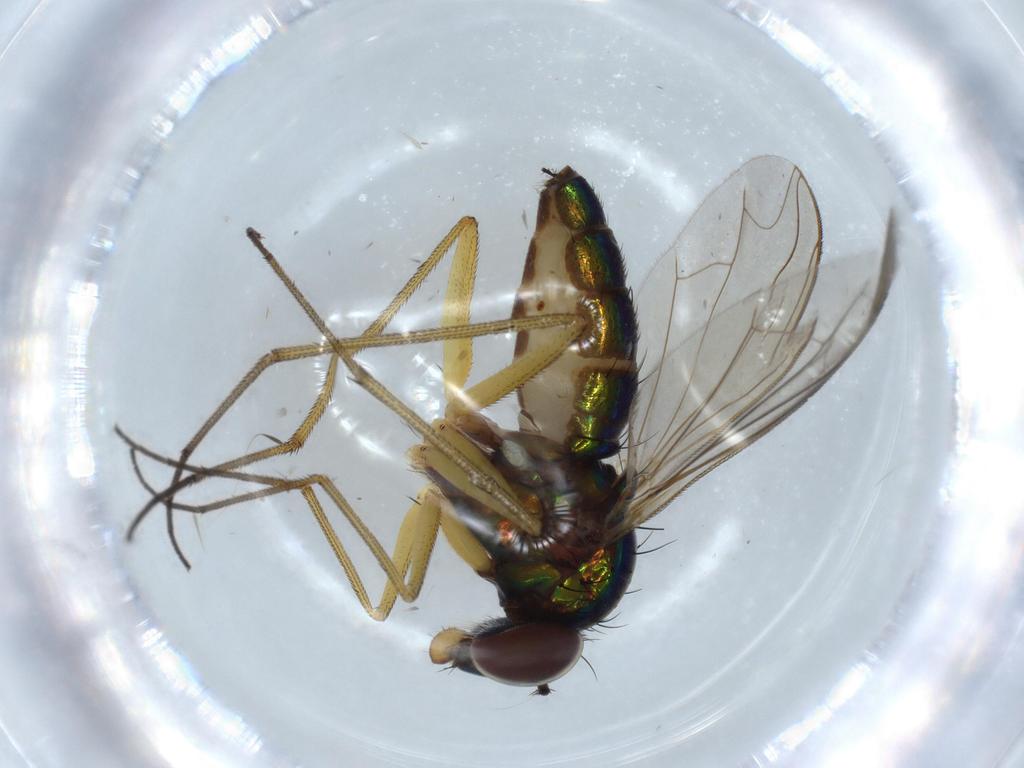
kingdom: Animalia
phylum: Arthropoda
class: Insecta
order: Diptera
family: Dolichopodidae
